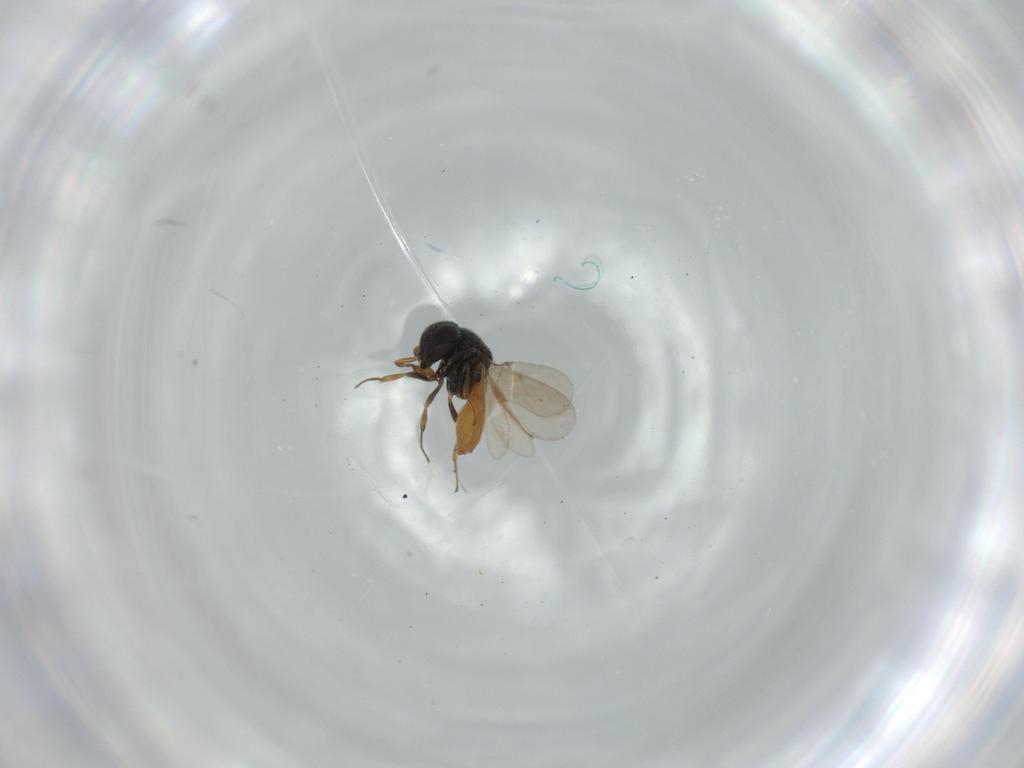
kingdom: Animalia
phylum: Arthropoda
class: Insecta
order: Hymenoptera
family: Scelionidae
